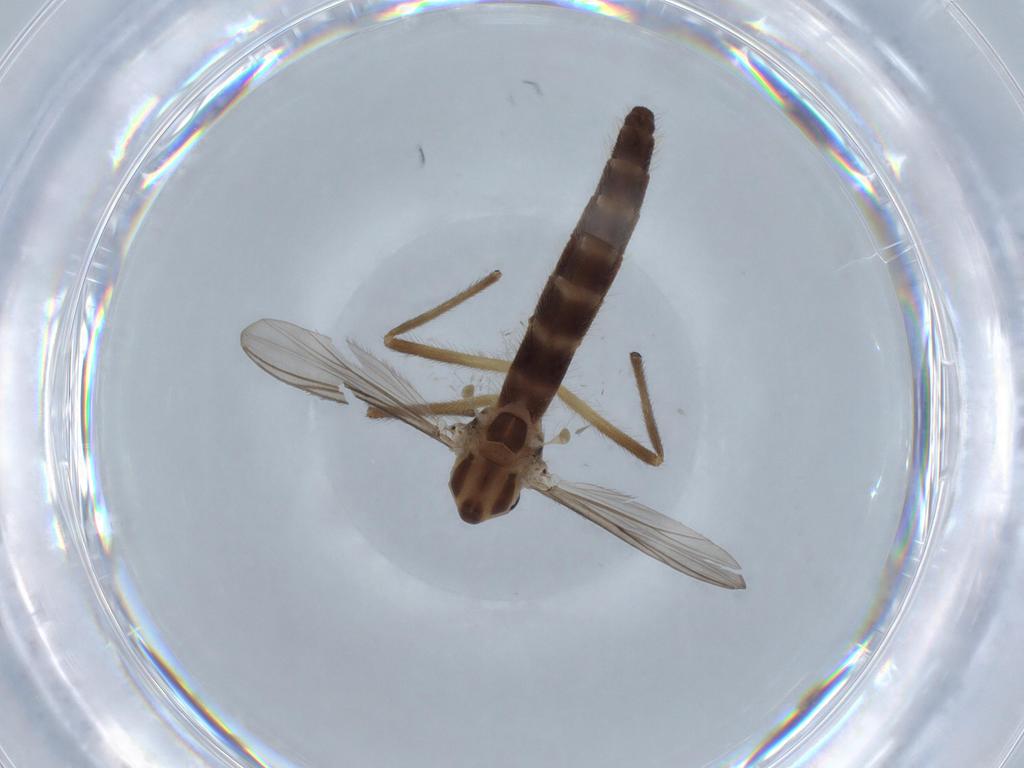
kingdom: Animalia
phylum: Arthropoda
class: Insecta
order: Diptera
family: Chironomidae
